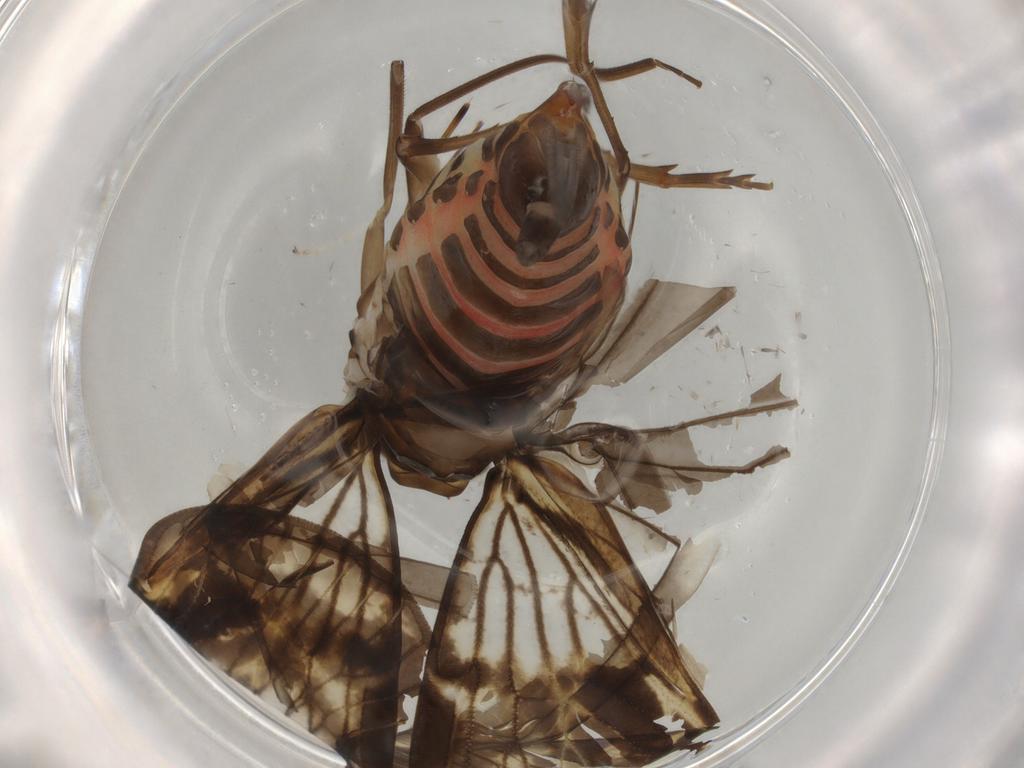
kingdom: Animalia
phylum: Arthropoda
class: Insecta
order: Hemiptera
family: Cixiidae
